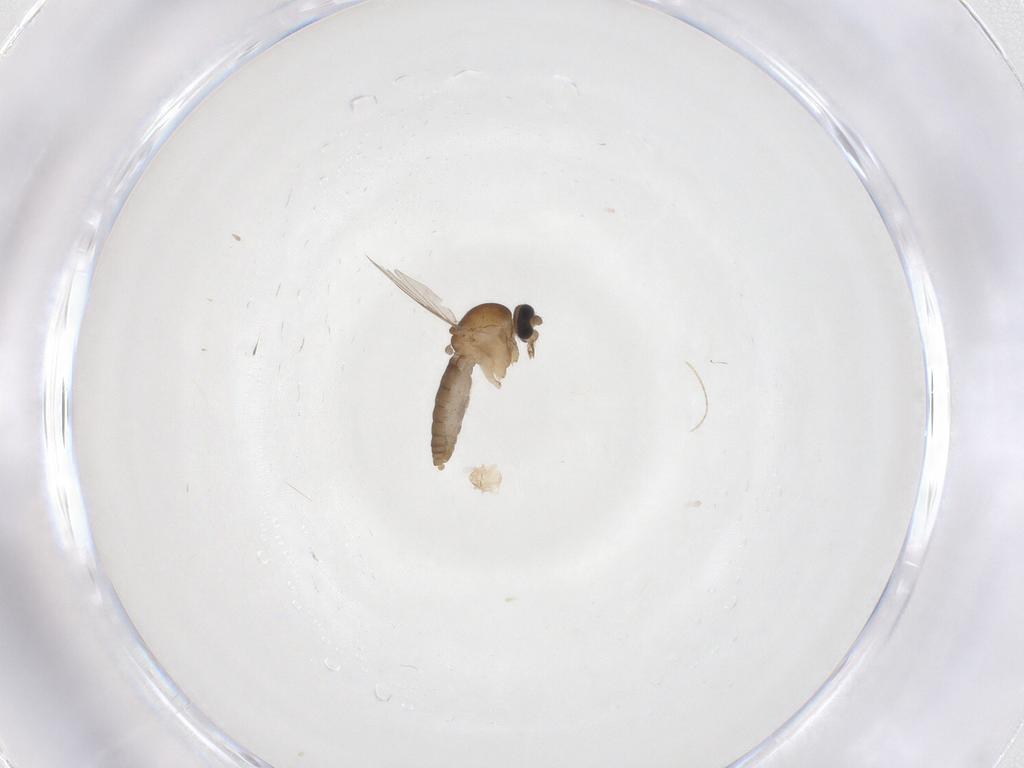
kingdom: Animalia
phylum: Arthropoda
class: Insecta
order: Diptera
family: Ceratopogonidae
